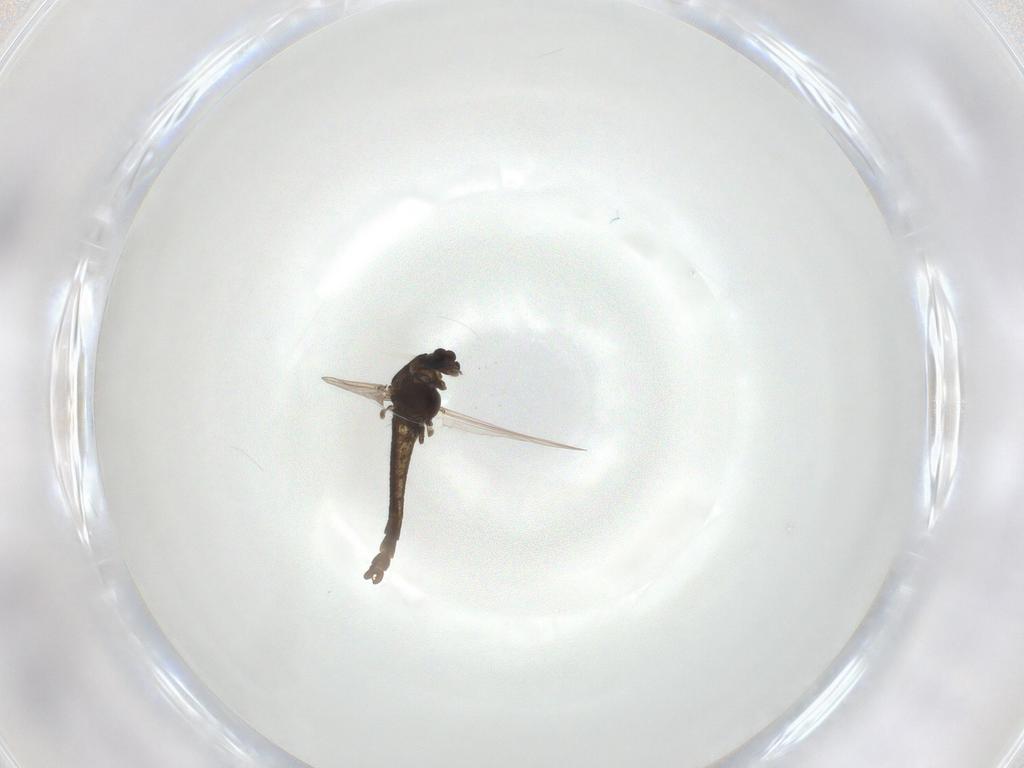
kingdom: Animalia
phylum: Arthropoda
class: Insecta
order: Diptera
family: Chironomidae
